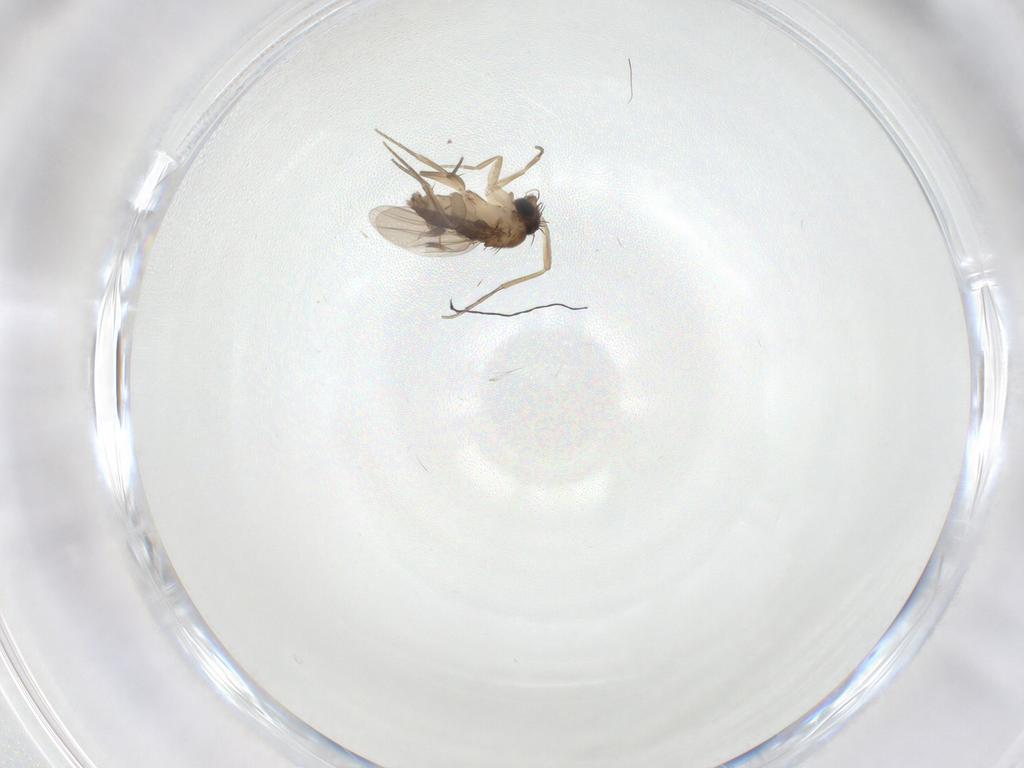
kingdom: Animalia
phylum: Arthropoda
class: Insecta
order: Diptera
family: Phoridae
